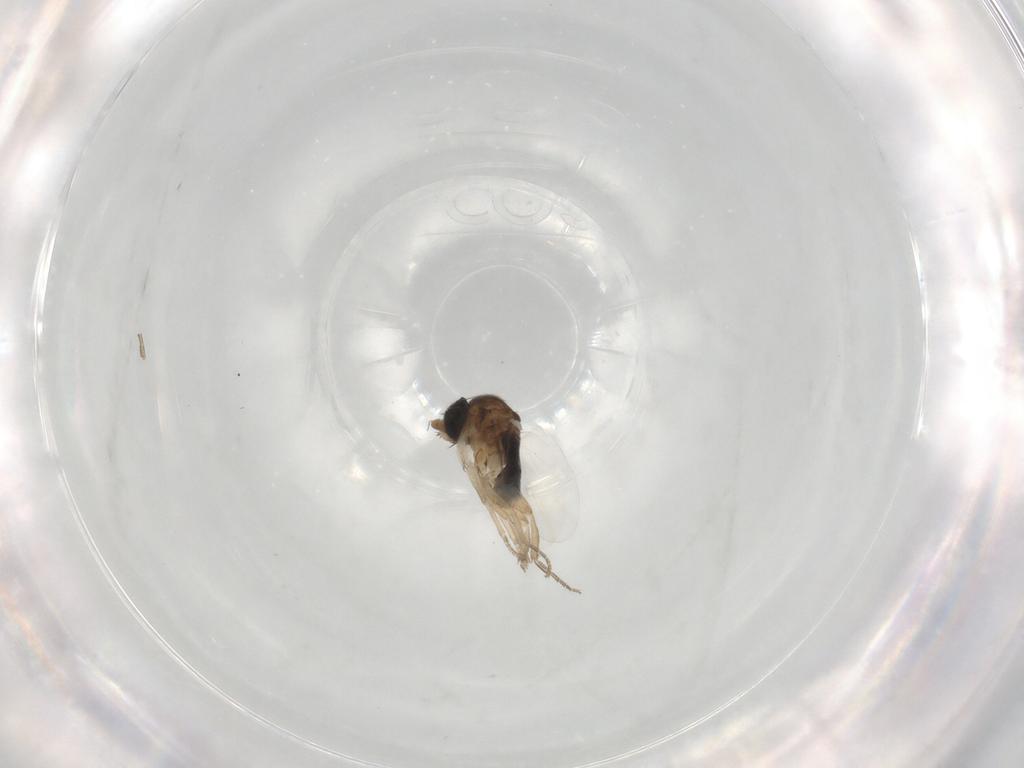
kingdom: Animalia
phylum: Arthropoda
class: Insecta
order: Diptera
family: Phoridae
